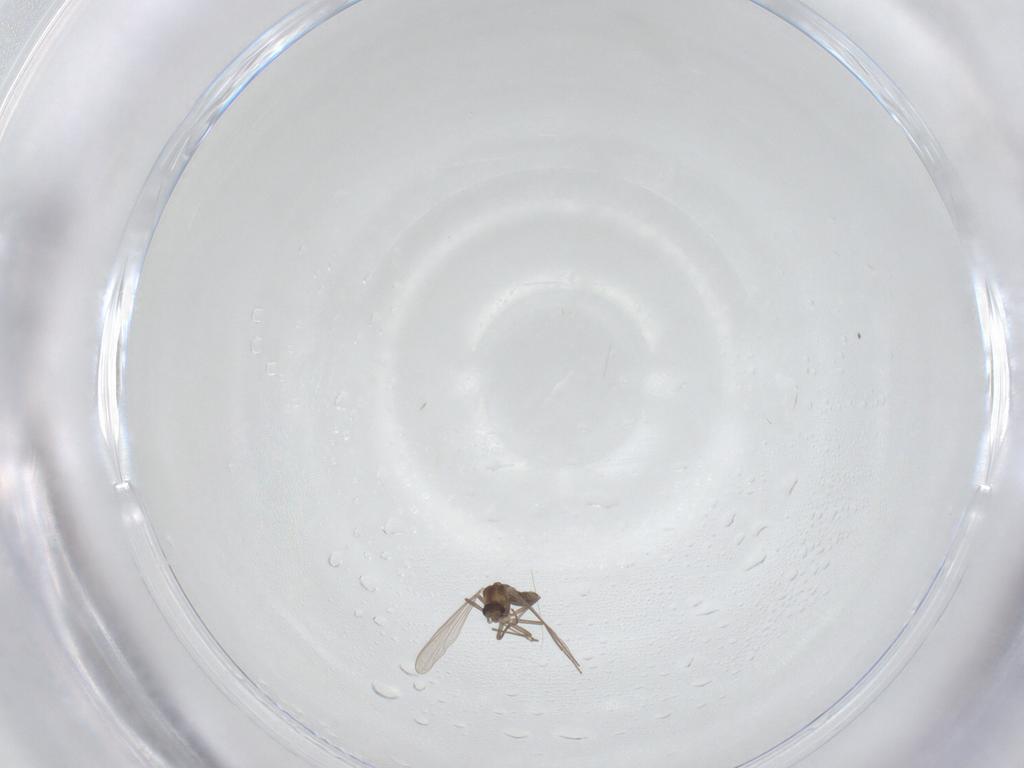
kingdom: Animalia
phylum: Arthropoda
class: Insecta
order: Diptera
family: Chironomidae
